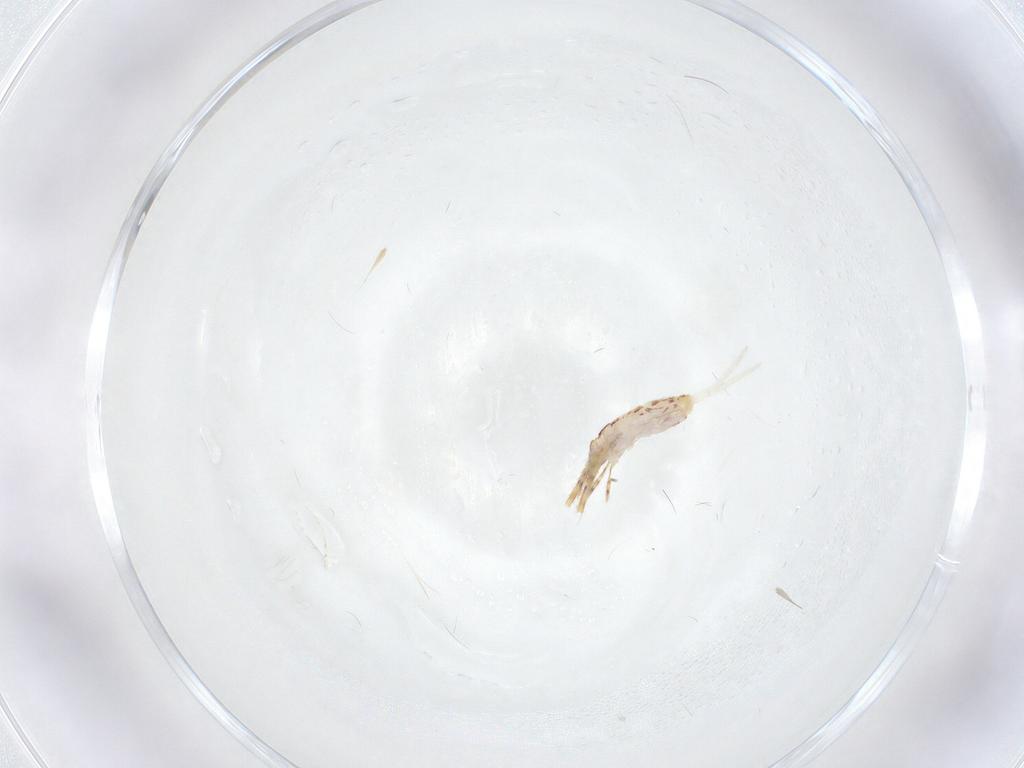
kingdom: Animalia
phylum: Arthropoda
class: Collembola
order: Entomobryomorpha
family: Entomobryidae
